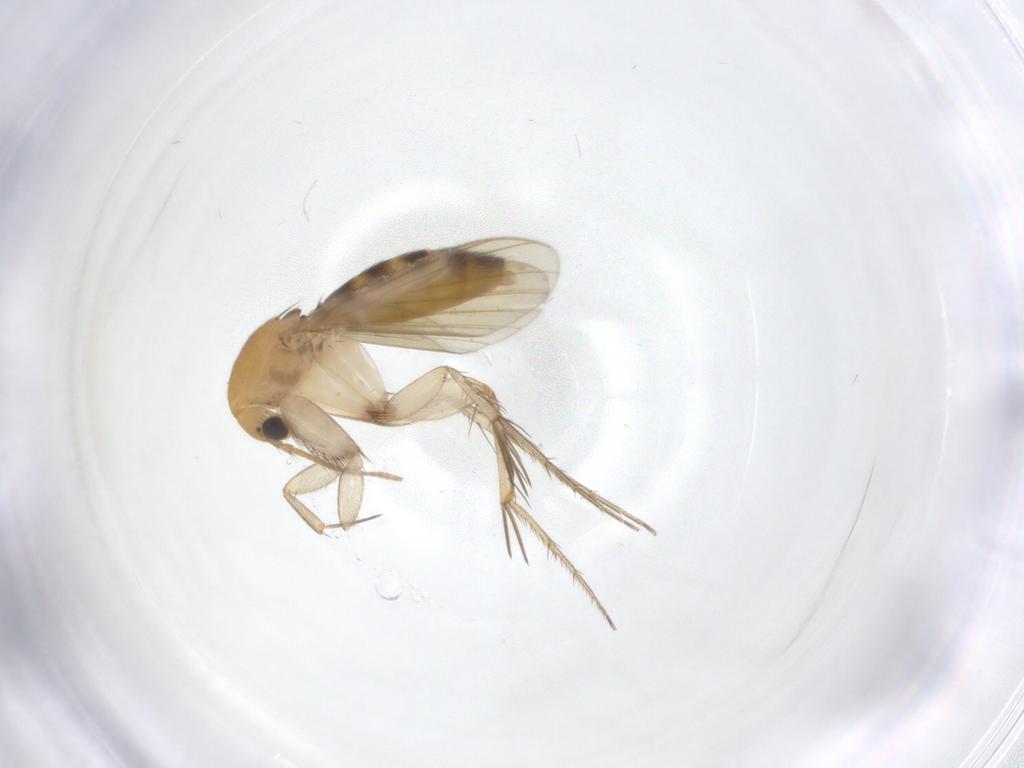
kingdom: Animalia
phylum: Arthropoda
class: Insecta
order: Diptera
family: Mycetophilidae
